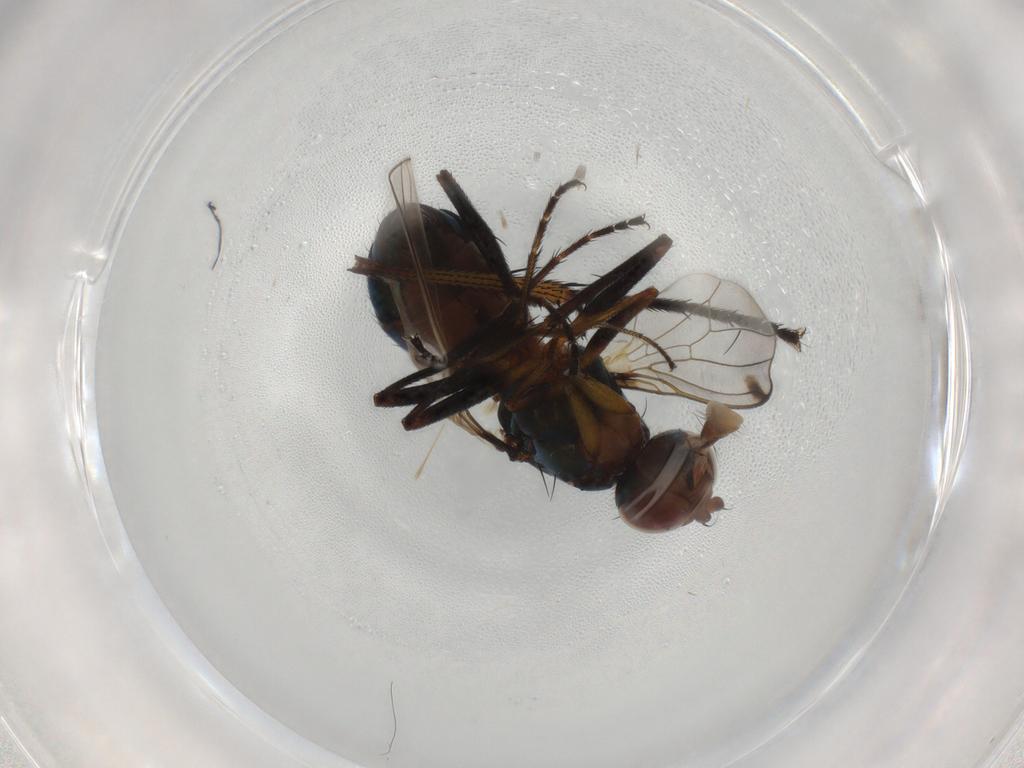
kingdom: Animalia
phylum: Arthropoda
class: Insecta
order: Diptera
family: Dolichopodidae
